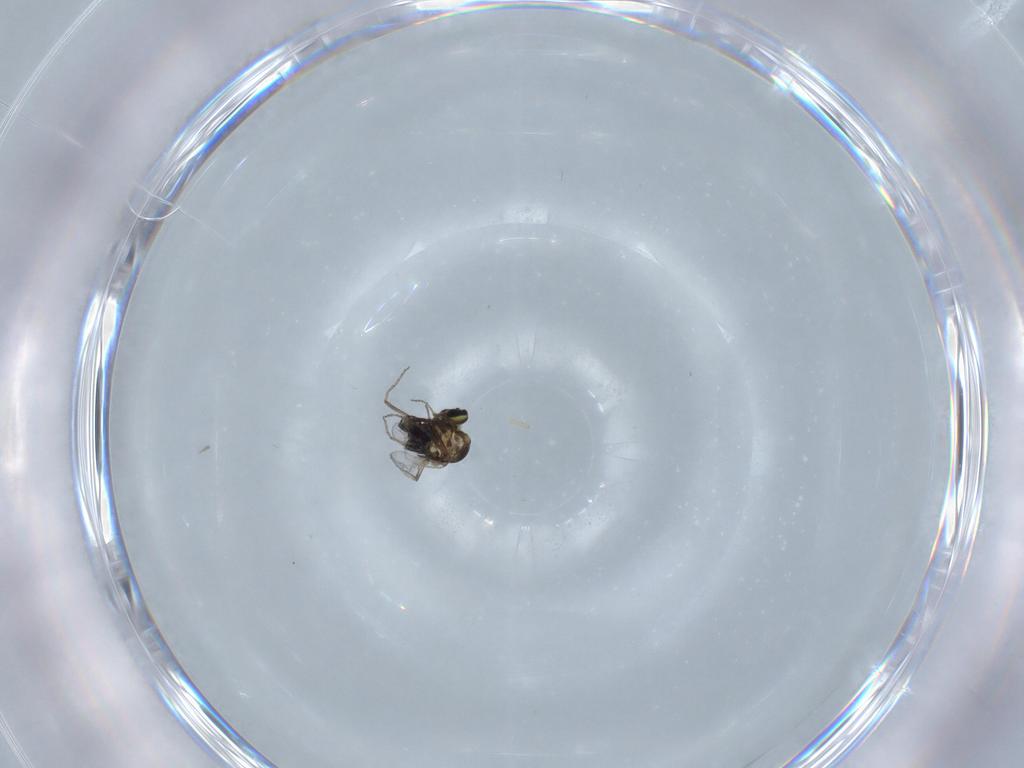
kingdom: Animalia
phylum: Arthropoda
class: Insecta
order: Diptera
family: Ceratopogonidae
